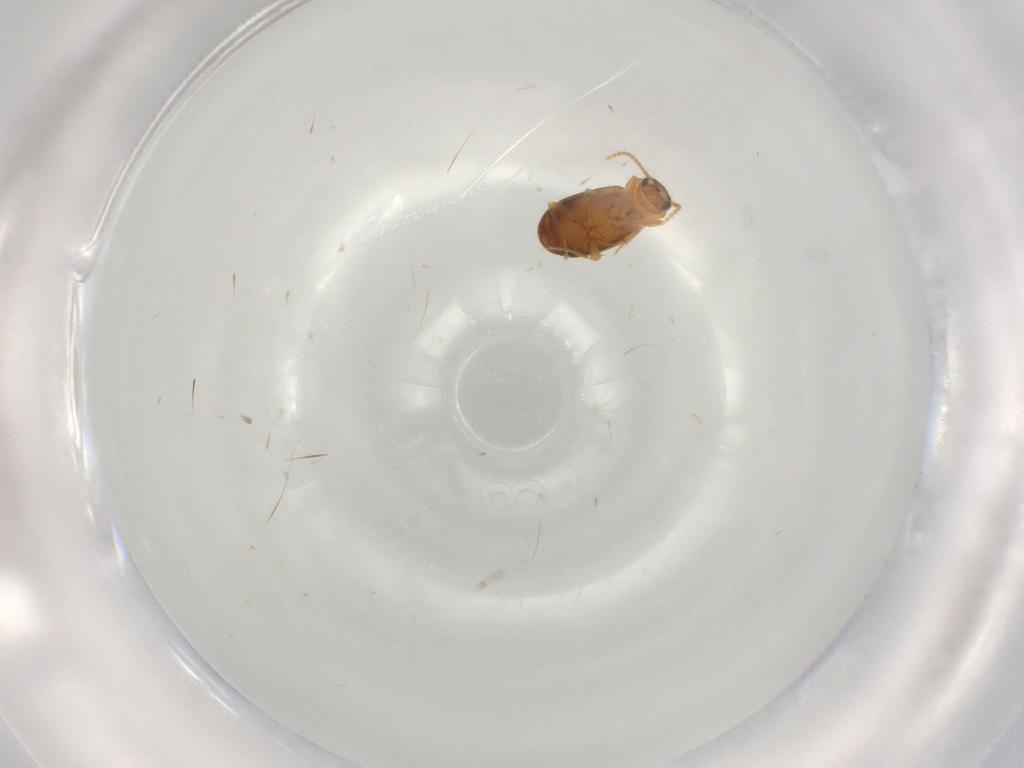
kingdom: Animalia
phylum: Arthropoda
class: Insecta
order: Coleoptera
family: Carabidae
